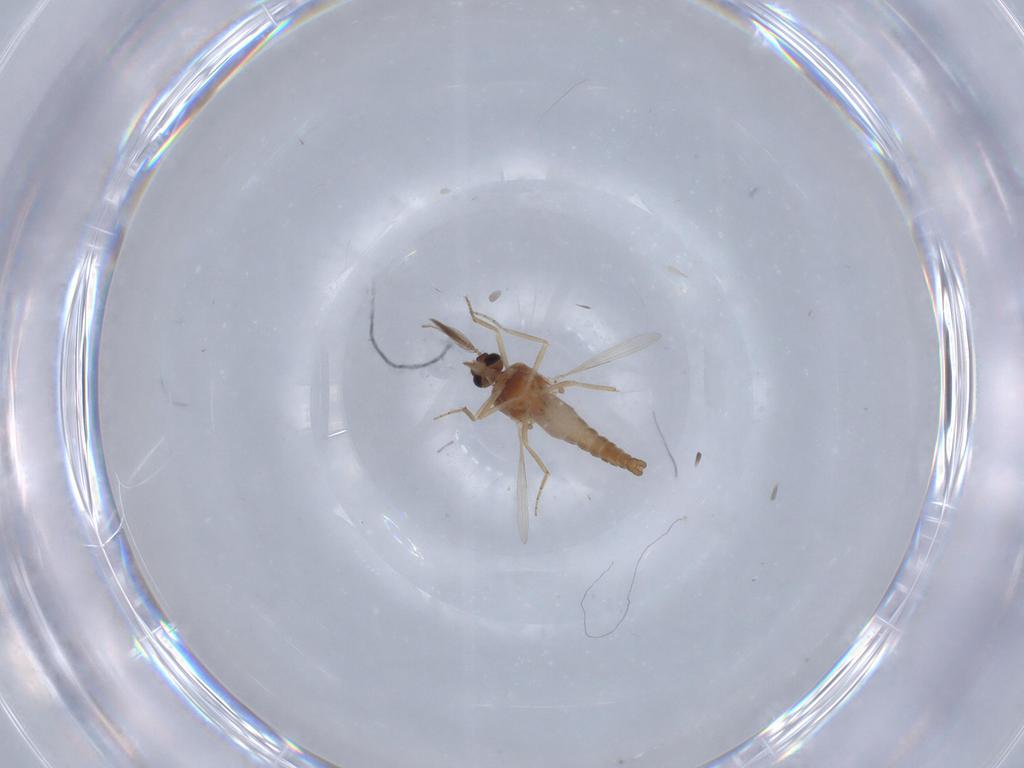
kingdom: Animalia
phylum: Arthropoda
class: Insecta
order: Diptera
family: Ceratopogonidae
